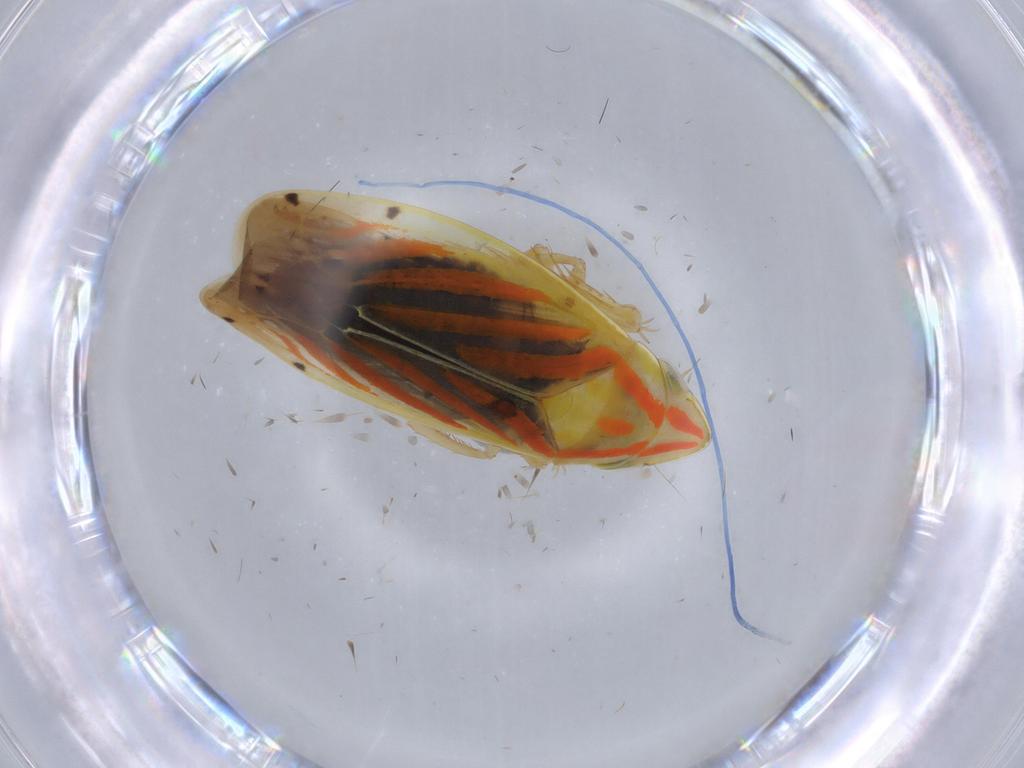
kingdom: Animalia
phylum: Arthropoda
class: Insecta
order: Hemiptera
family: Cicadellidae
